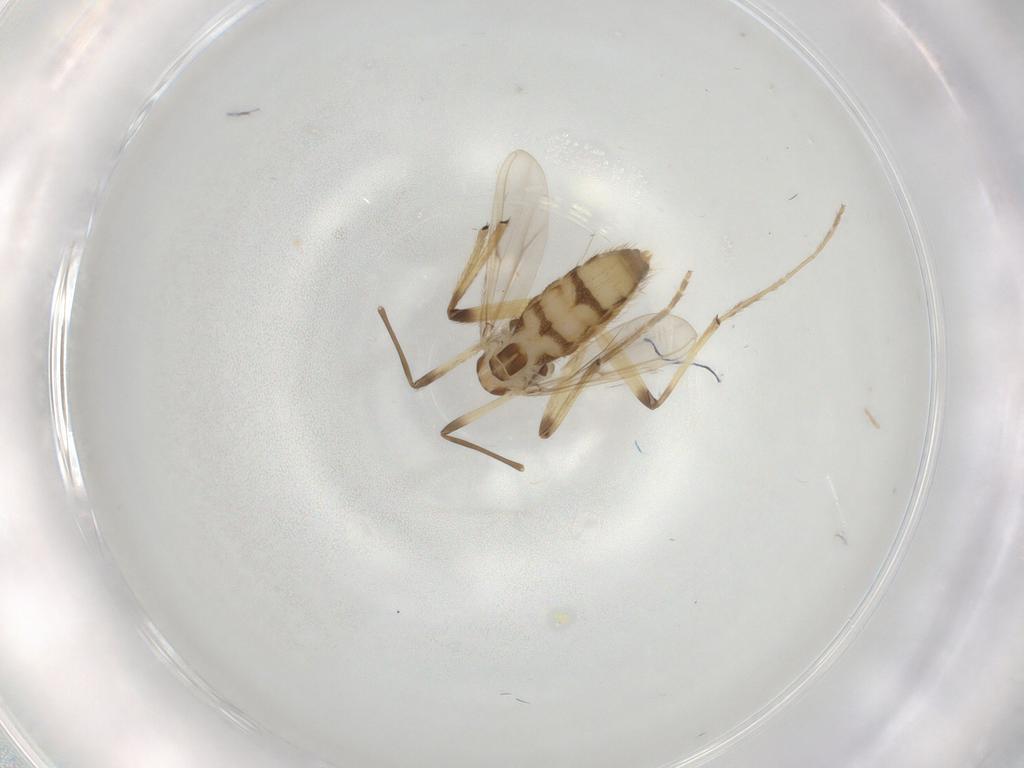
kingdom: Animalia
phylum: Arthropoda
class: Insecta
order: Diptera
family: Chironomidae
